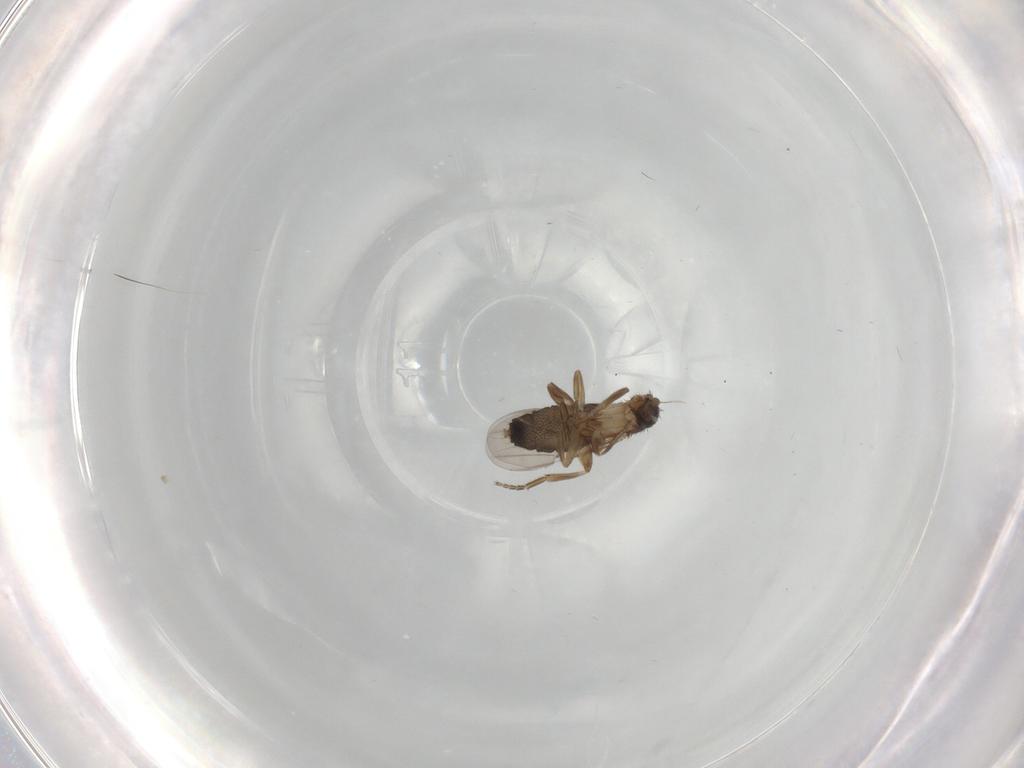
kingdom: Animalia
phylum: Arthropoda
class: Insecta
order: Diptera
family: Phoridae
